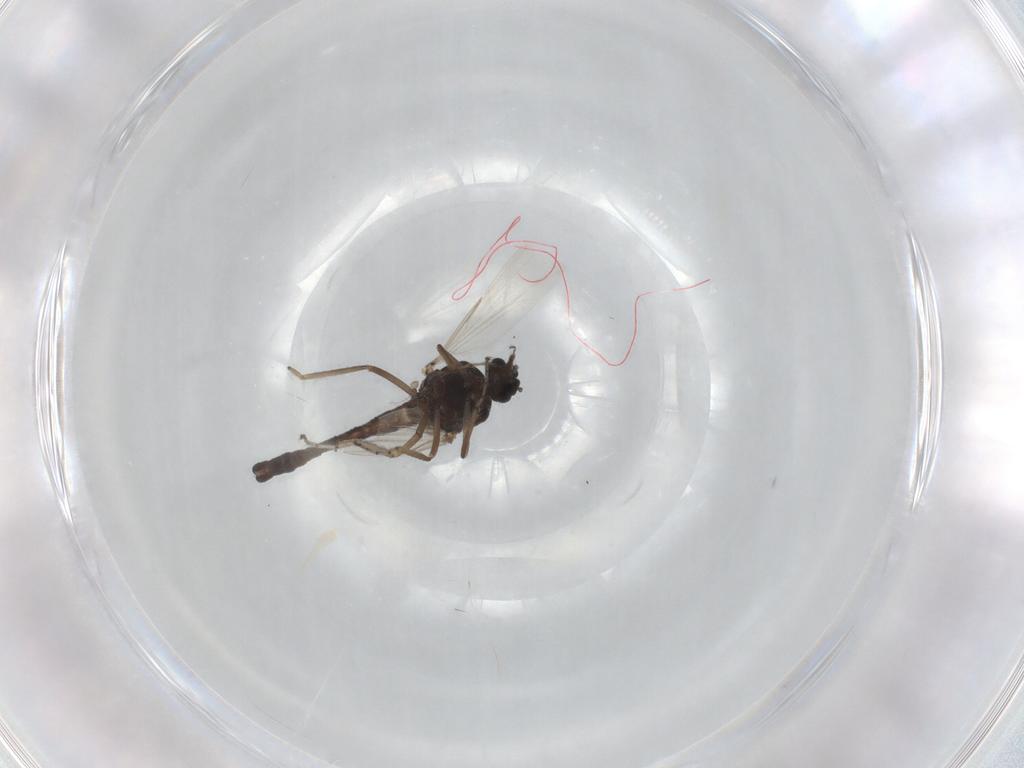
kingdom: Animalia
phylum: Arthropoda
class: Insecta
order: Diptera
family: Ceratopogonidae
